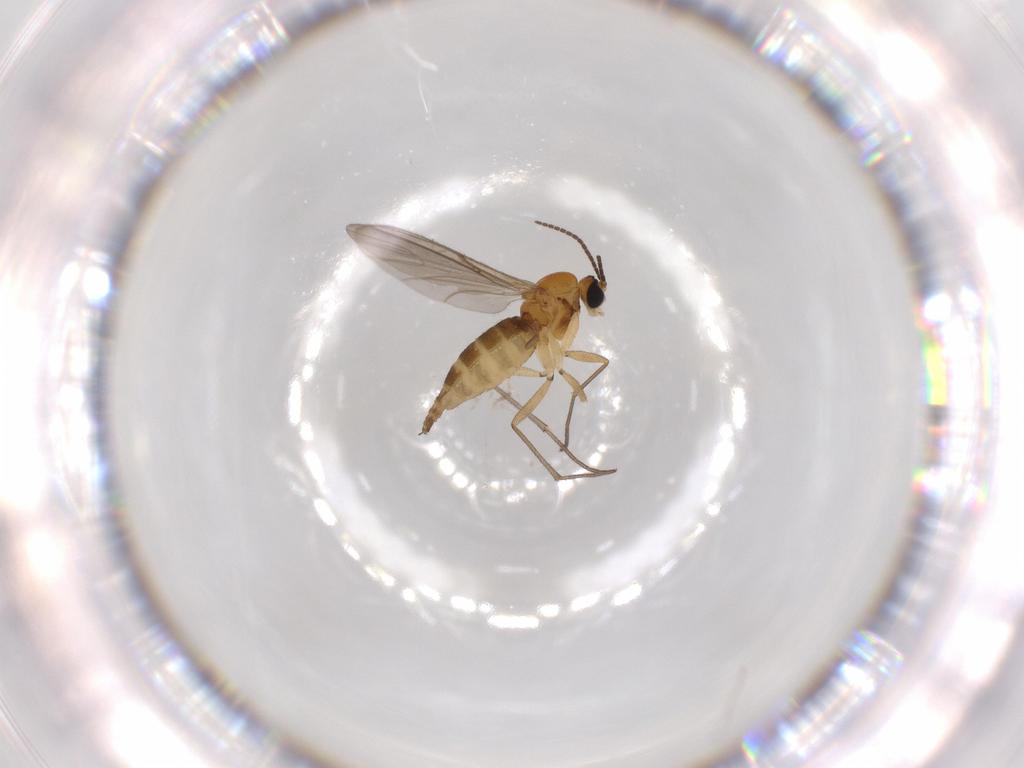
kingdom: Animalia
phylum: Arthropoda
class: Insecta
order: Diptera
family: Sciaridae
